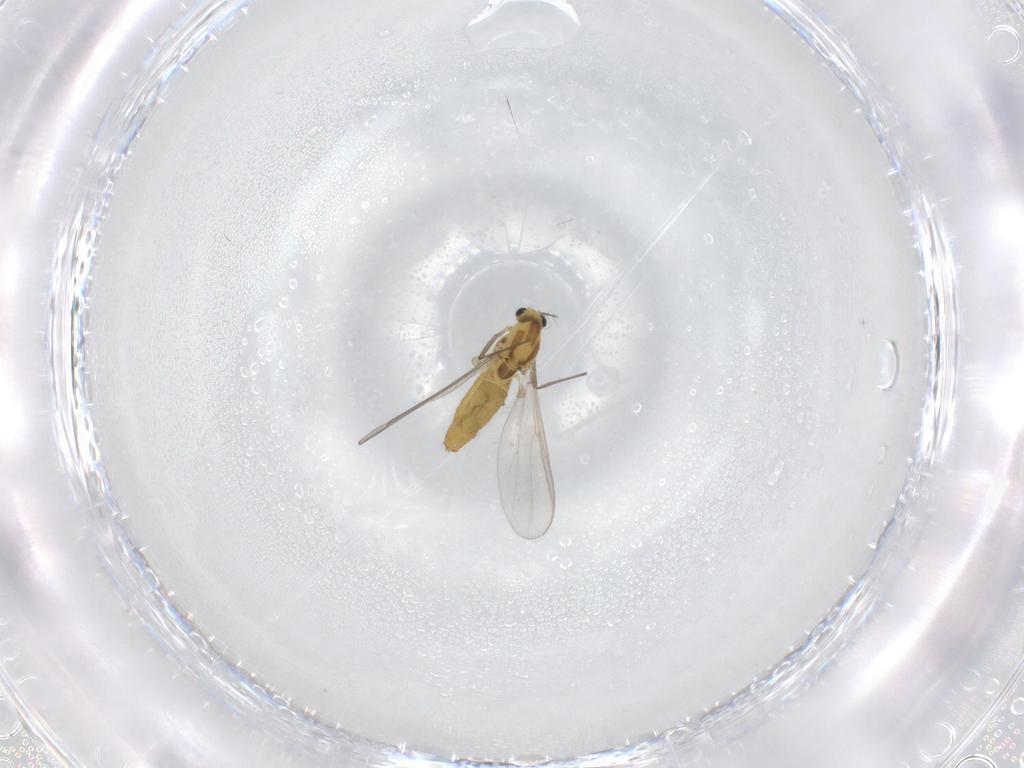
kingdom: Animalia
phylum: Arthropoda
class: Insecta
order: Diptera
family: Chironomidae
